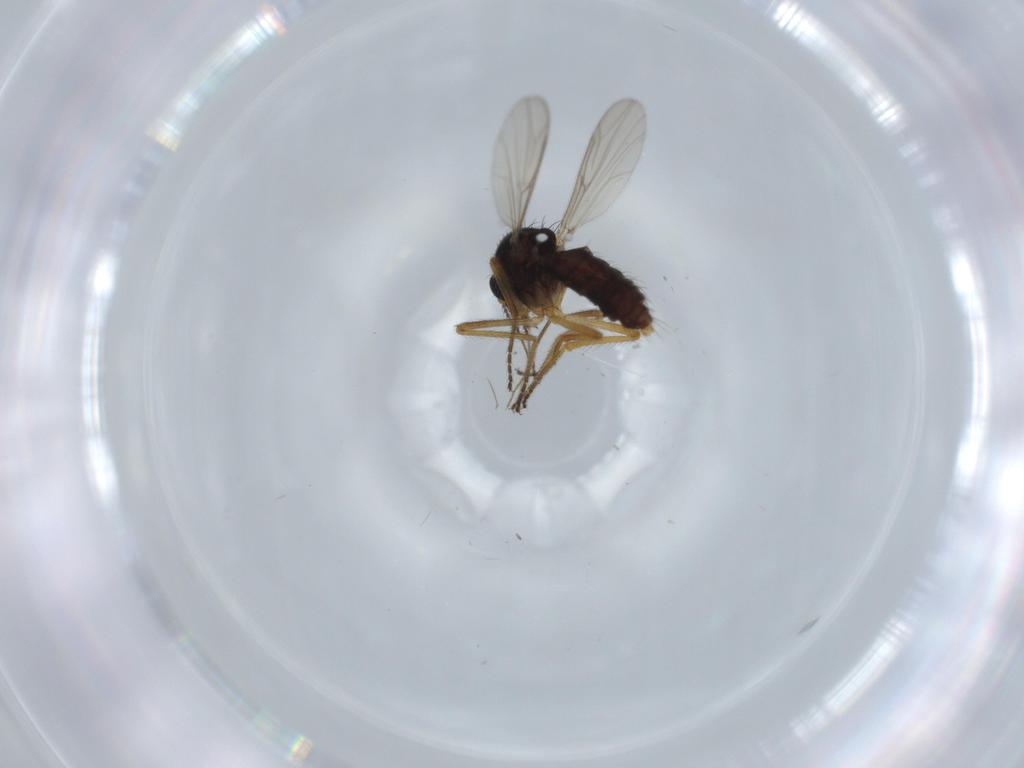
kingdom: Animalia
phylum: Arthropoda
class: Insecta
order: Diptera
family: Ceratopogonidae
